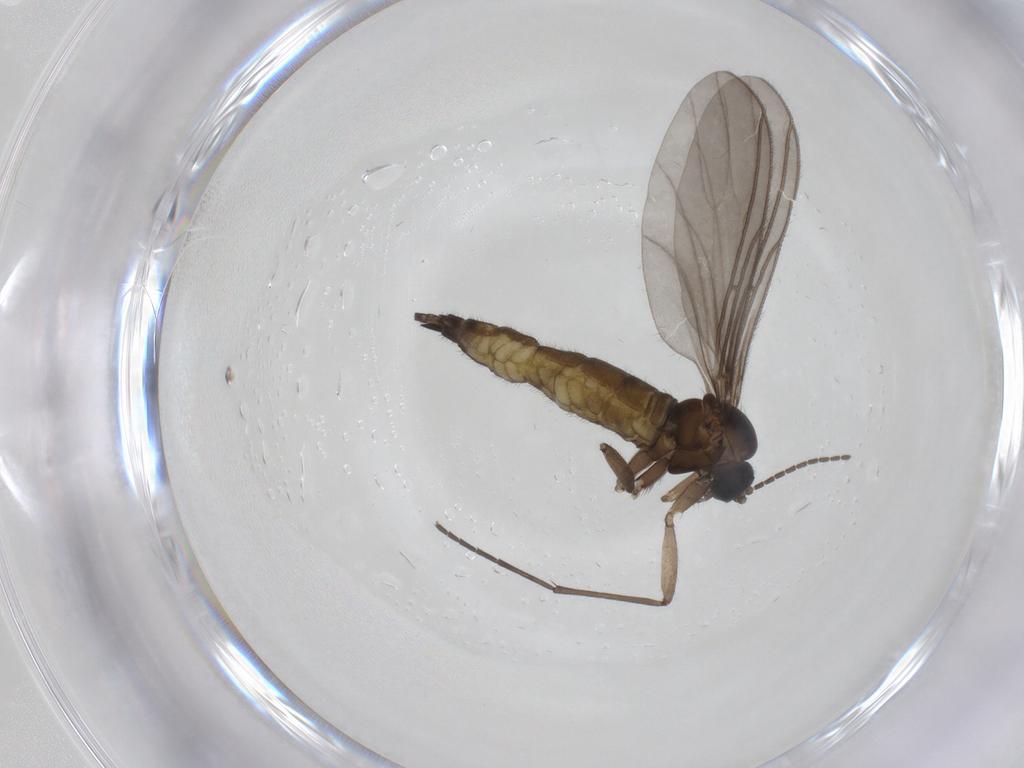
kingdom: Animalia
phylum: Arthropoda
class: Insecta
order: Diptera
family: Sciaridae
